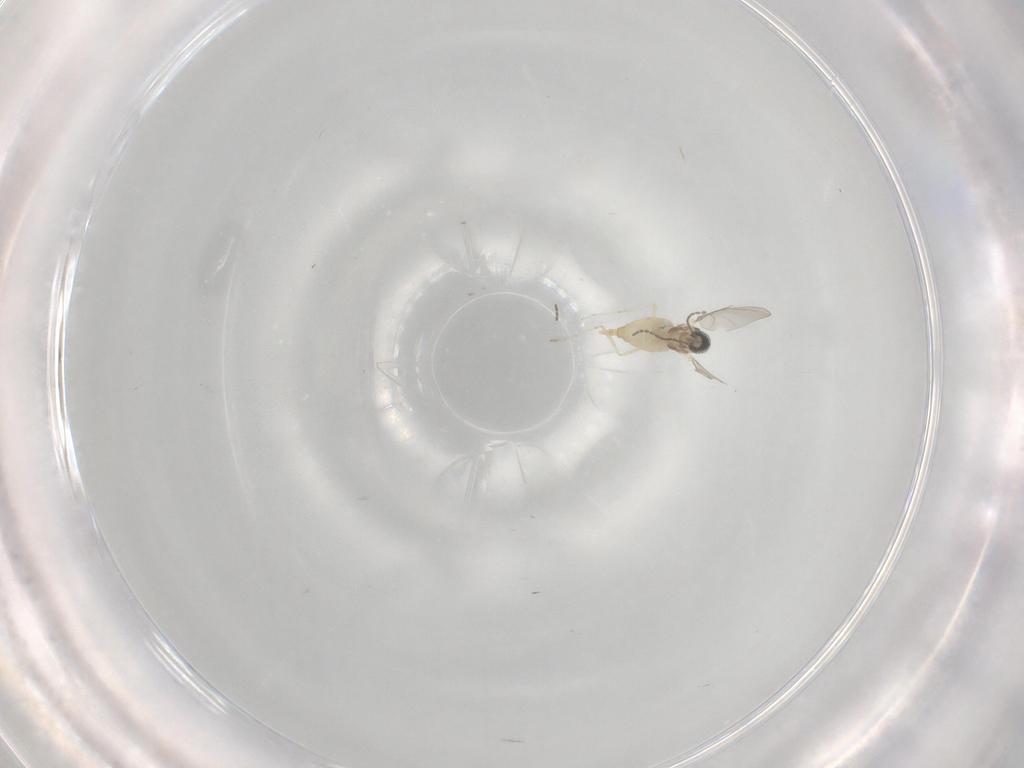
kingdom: Animalia
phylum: Arthropoda
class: Insecta
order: Diptera
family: Cecidomyiidae
